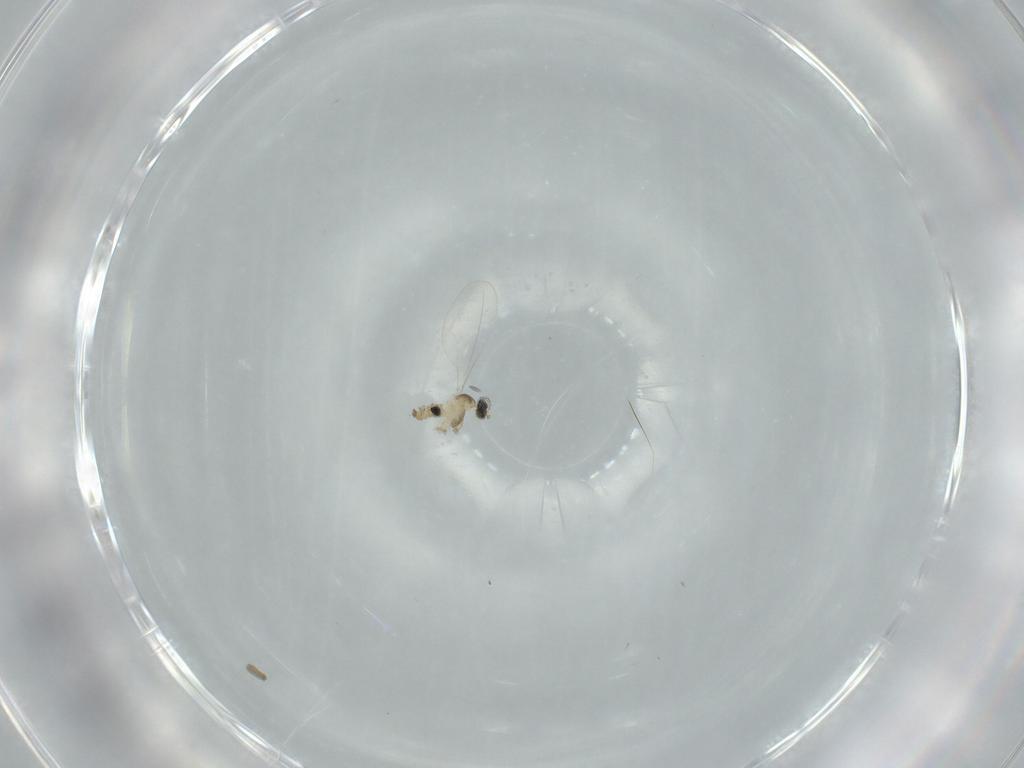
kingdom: Animalia
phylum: Arthropoda
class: Insecta
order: Diptera
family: Cecidomyiidae
